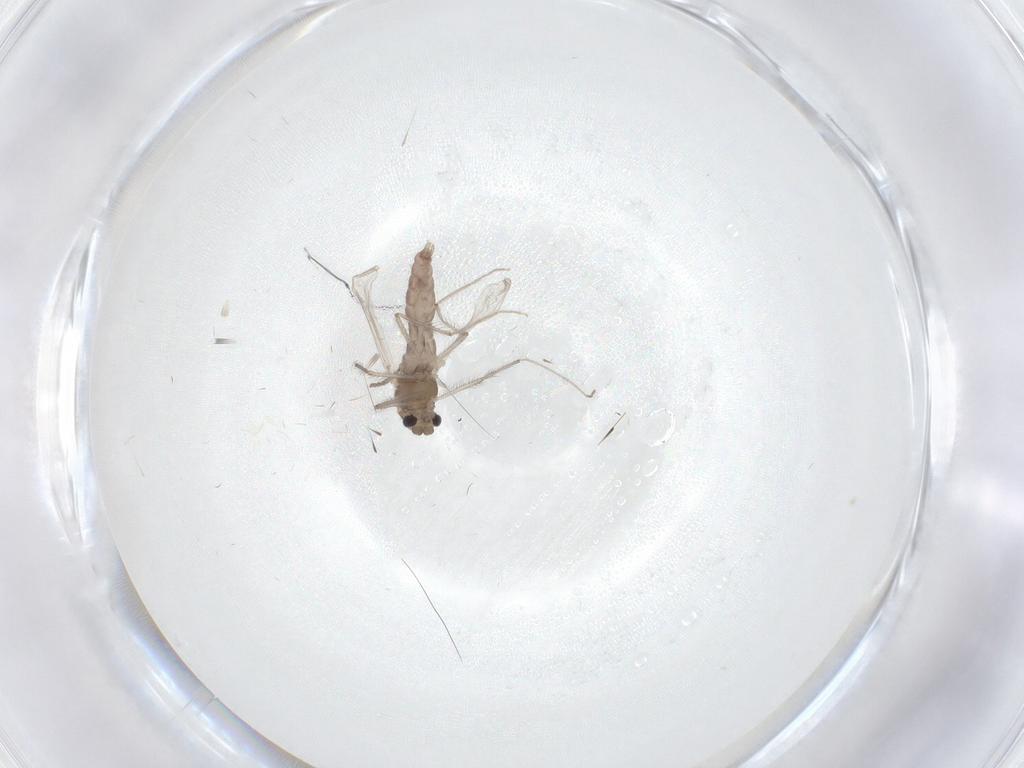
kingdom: Animalia
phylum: Arthropoda
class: Insecta
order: Diptera
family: Chironomidae
